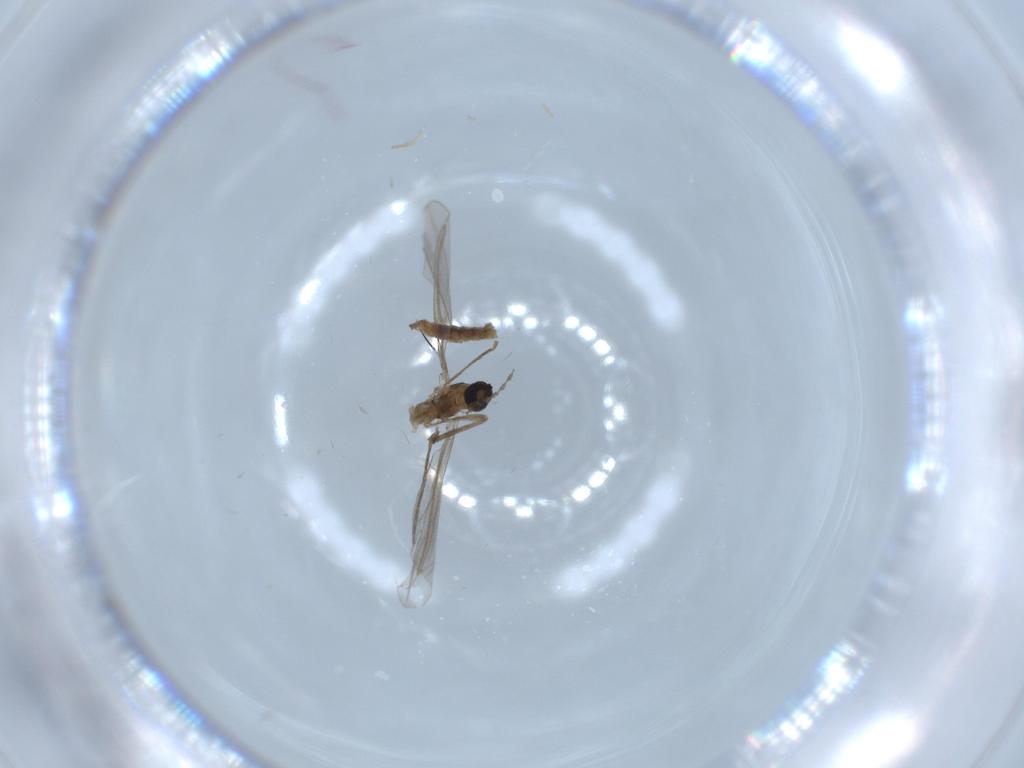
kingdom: Animalia
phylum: Arthropoda
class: Insecta
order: Diptera
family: Cecidomyiidae
